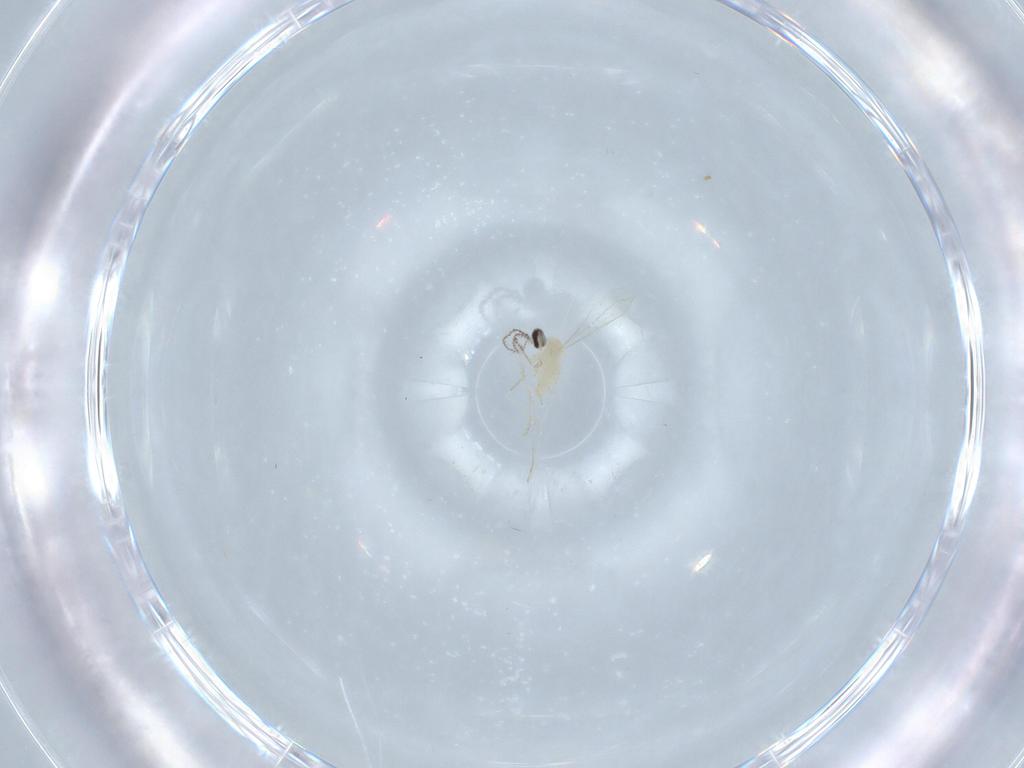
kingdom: Animalia
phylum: Arthropoda
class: Insecta
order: Diptera
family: Cecidomyiidae
